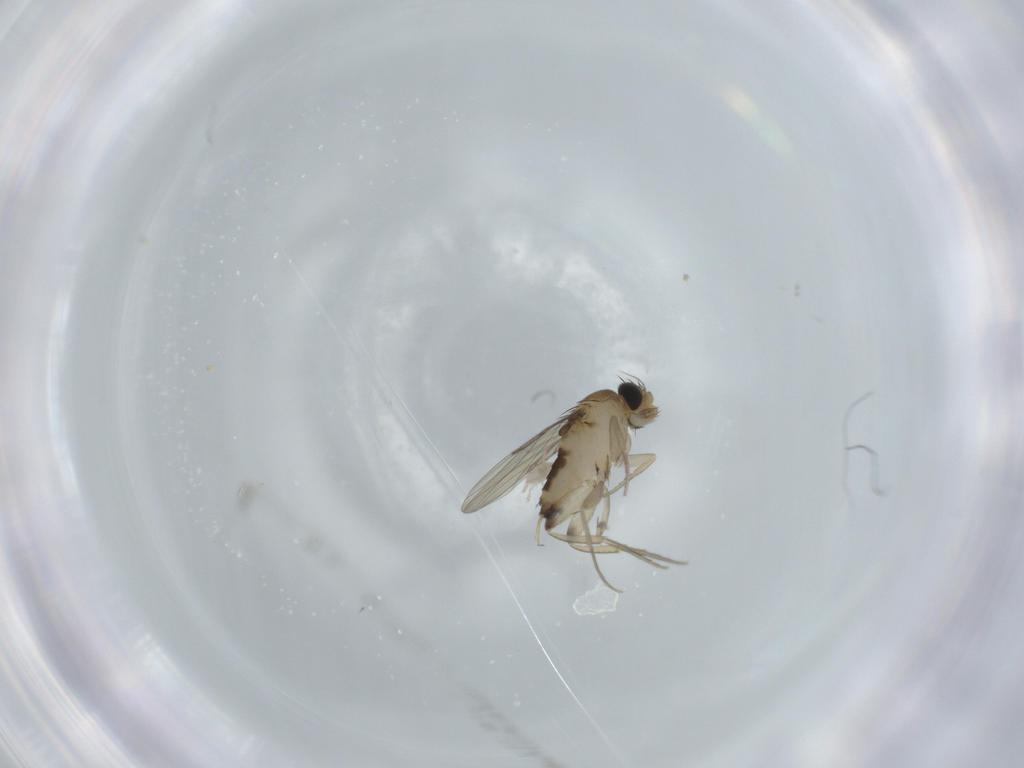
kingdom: Animalia
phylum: Arthropoda
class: Insecta
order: Diptera
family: Phoridae
